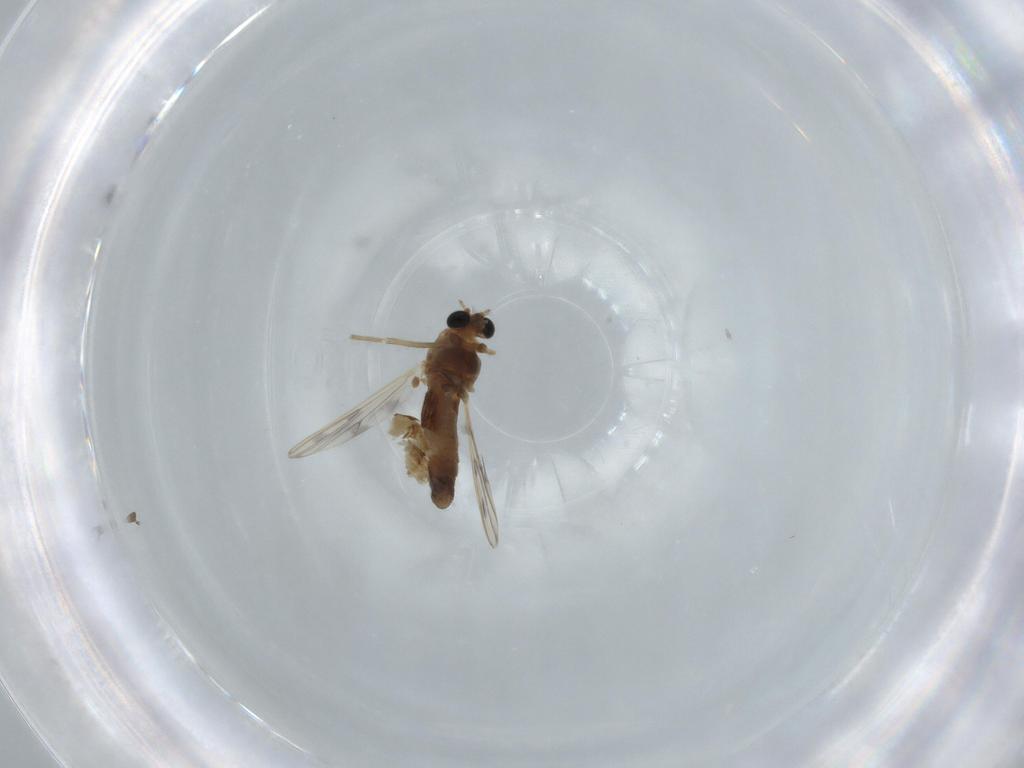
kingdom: Animalia
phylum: Arthropoda
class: Insecta
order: Diptera
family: Chironomidae
